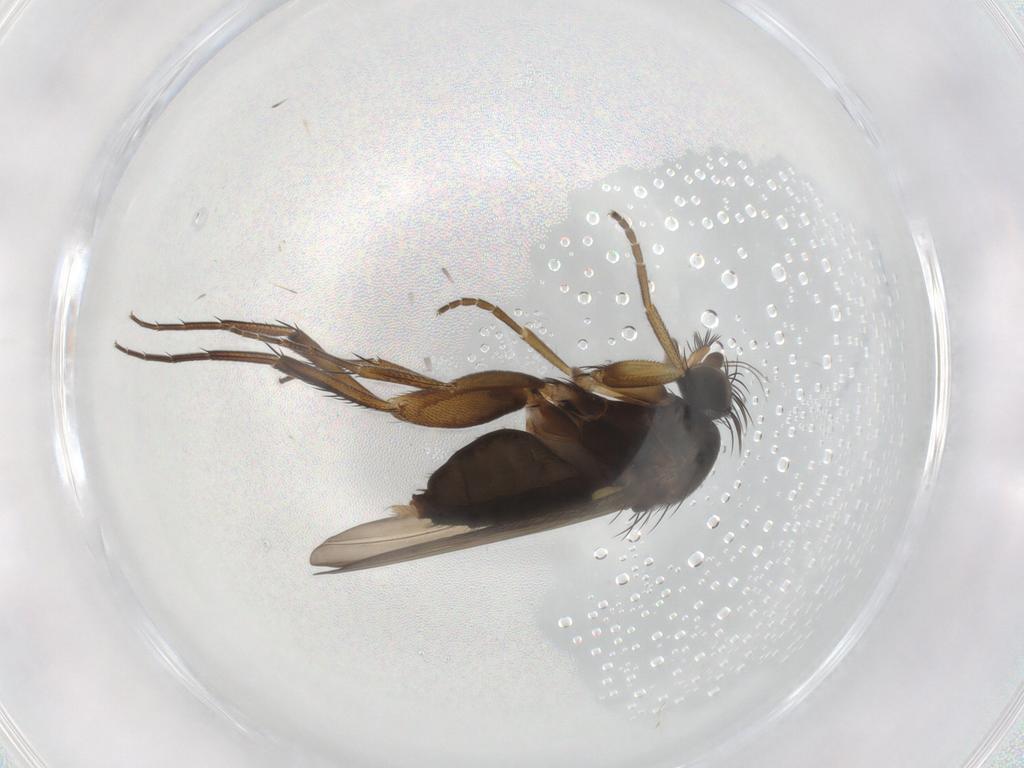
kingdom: Animalia
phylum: Arthropoda
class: Insecta
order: Diptera
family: Phoridae
